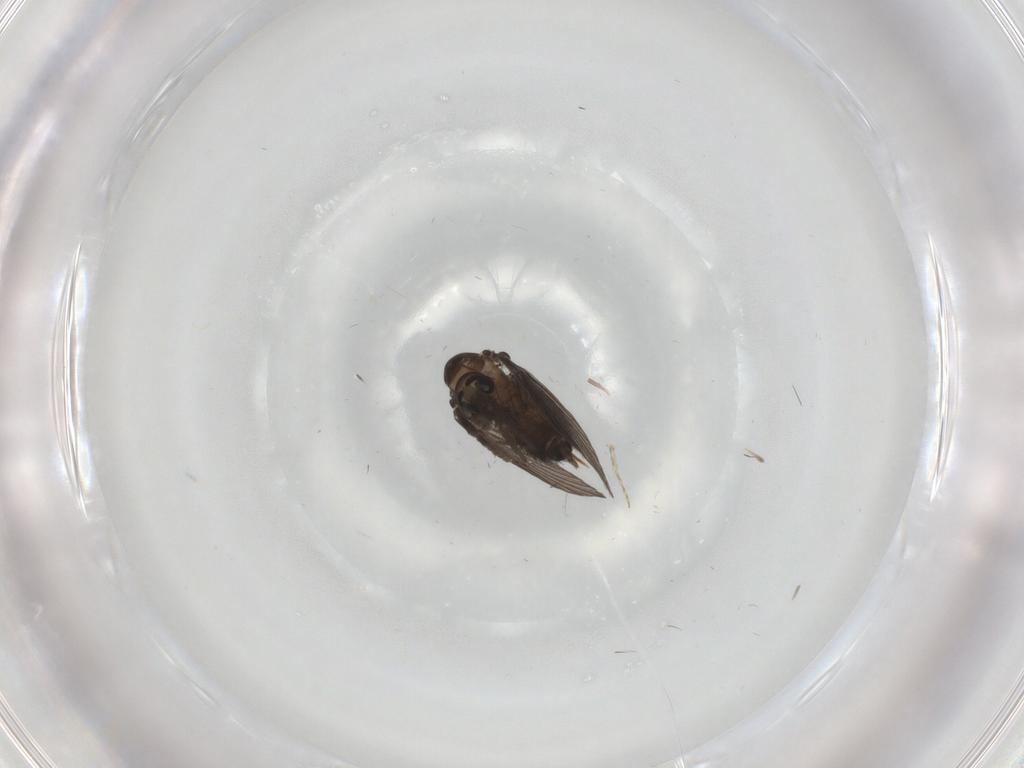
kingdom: Animalia
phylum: Arthropoda
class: Insecta
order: Diptera
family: Psychodidae
